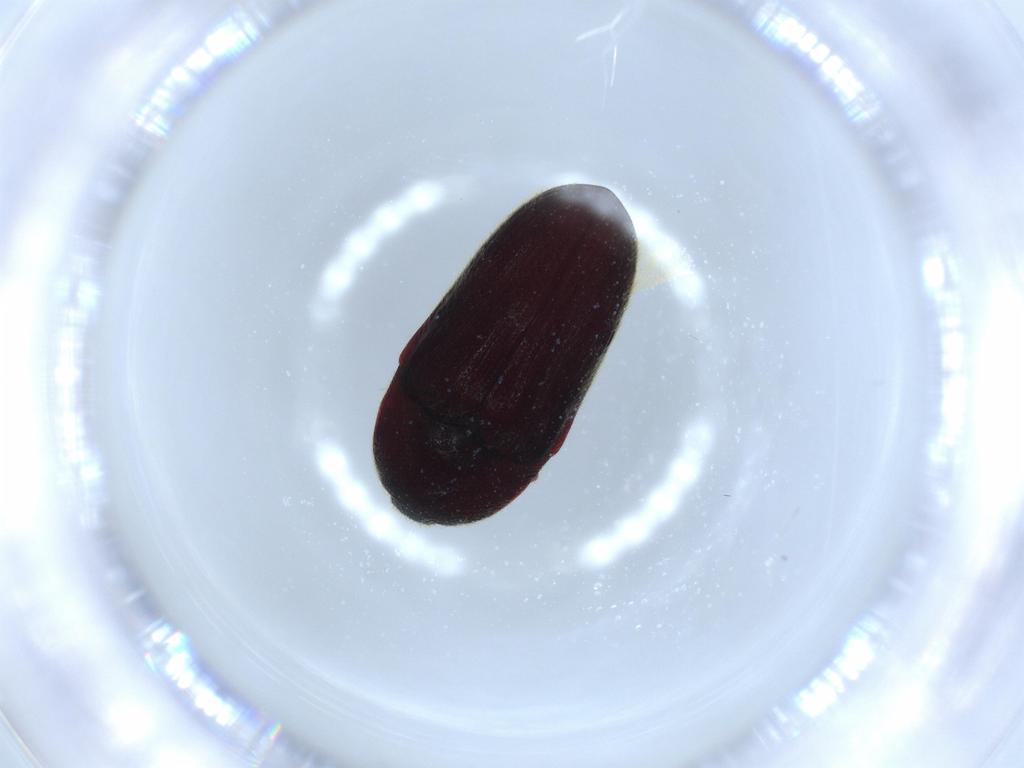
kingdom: Animalia
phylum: Arthropoda
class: Insecta
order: Coleoptera
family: Throscidae
